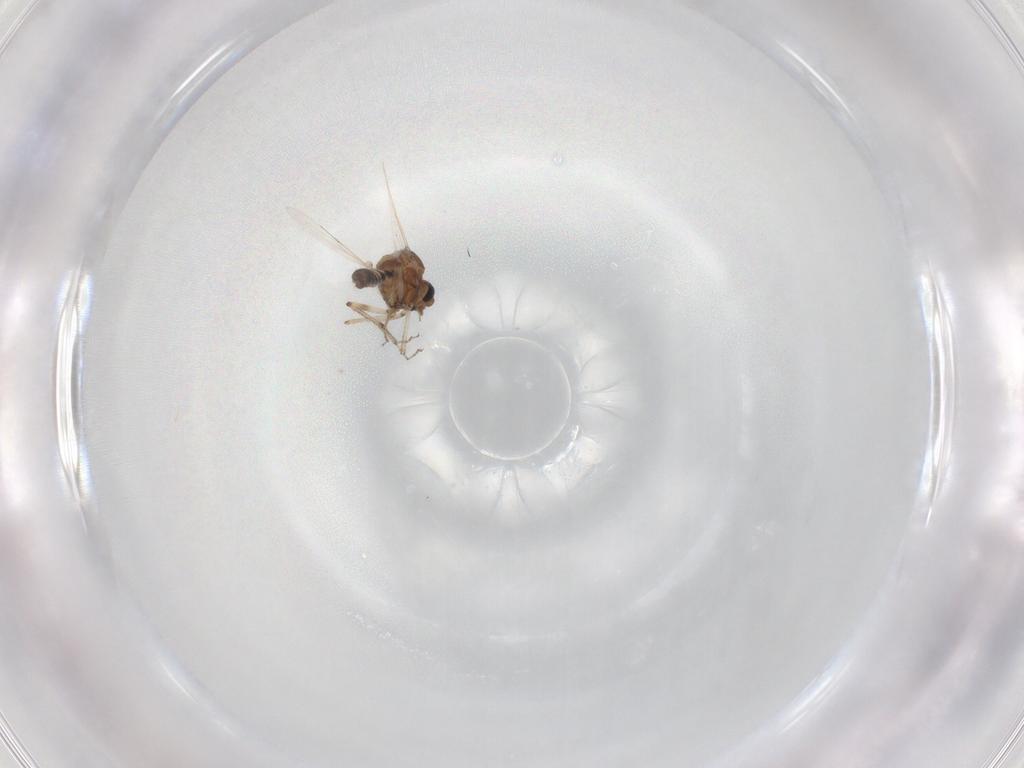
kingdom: Animalia
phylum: Arthropoda
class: Insecta
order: Diptera
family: Ceratopogonidae
